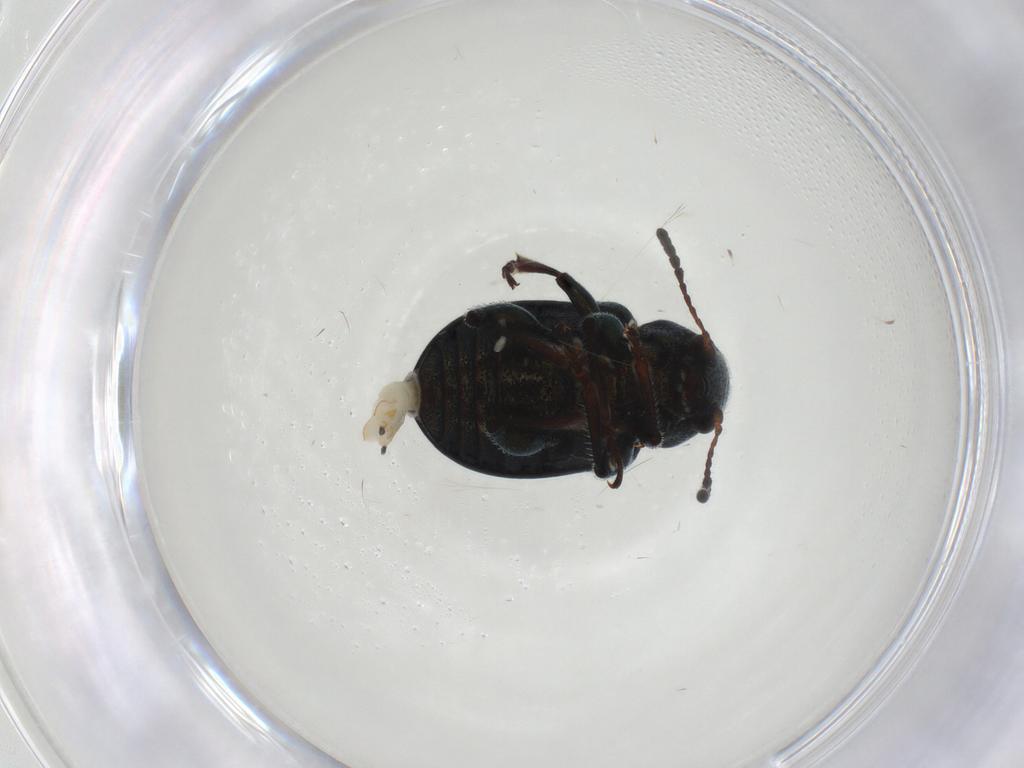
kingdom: Animalia
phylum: Arthropoda
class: Insecta
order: Coleoptera
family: Chrysomelidae
